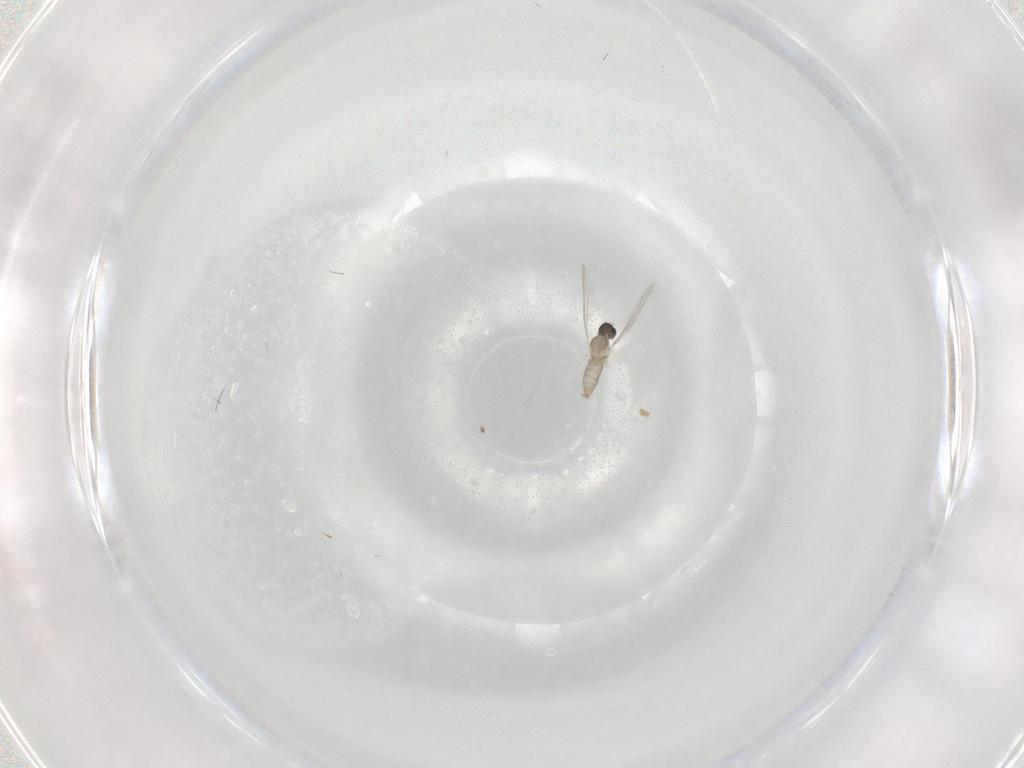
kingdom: Animalia
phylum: Arthropoda
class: Insecta
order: Diptera
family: Cecidomyiidae
